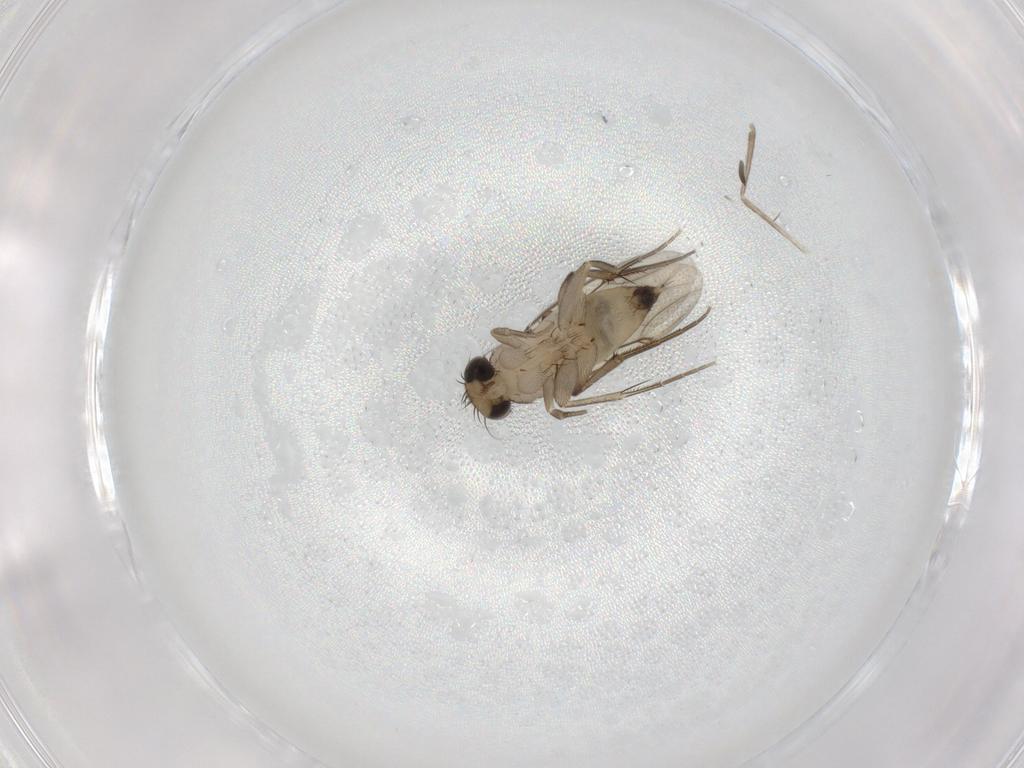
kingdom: Animalia
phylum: Arthropoda
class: Insecta
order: Diptera
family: Phoridae
